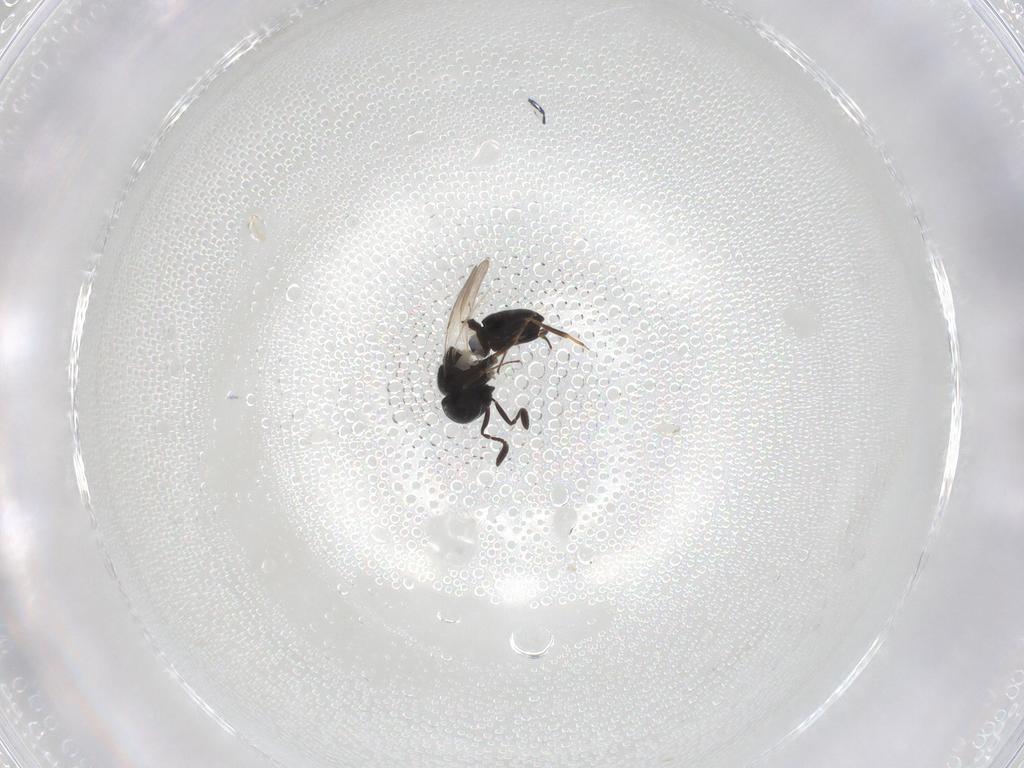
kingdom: Animalia
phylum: Arthropoda
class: Insecta
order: Hymenoptera
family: Scelionidae
